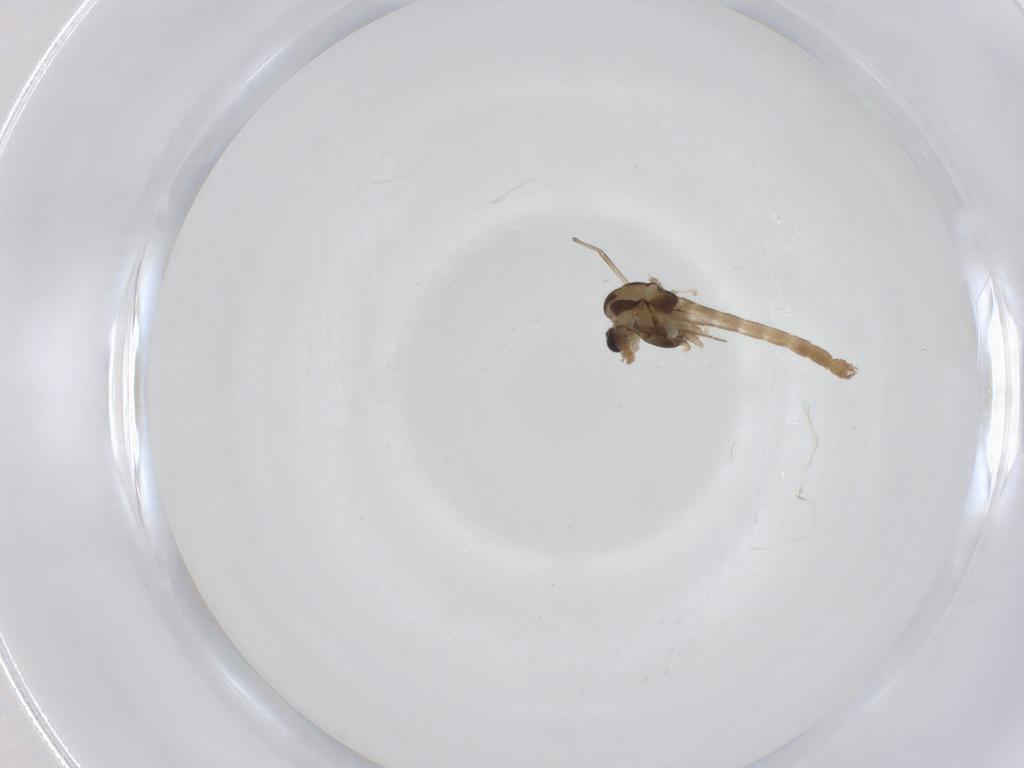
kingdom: Animalia
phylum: Arthropoda
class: Insecta
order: Diptera
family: Chironomidae
